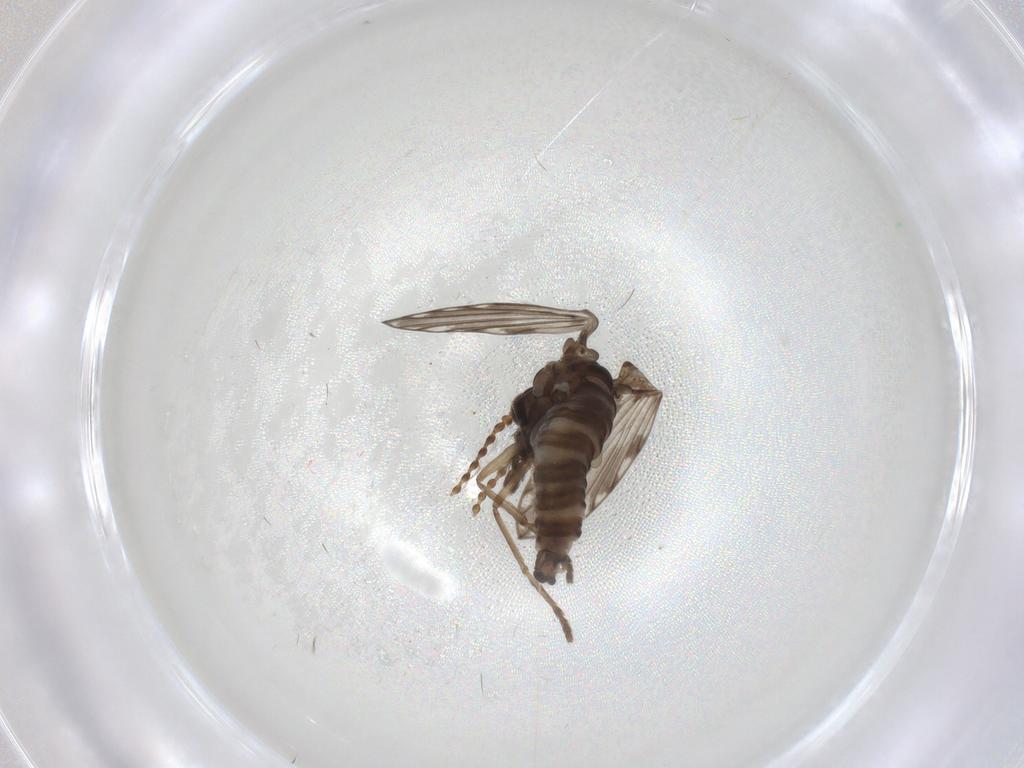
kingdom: Animalia
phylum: Arthropoda
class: Insecta
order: Diptera
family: Psychodidae
